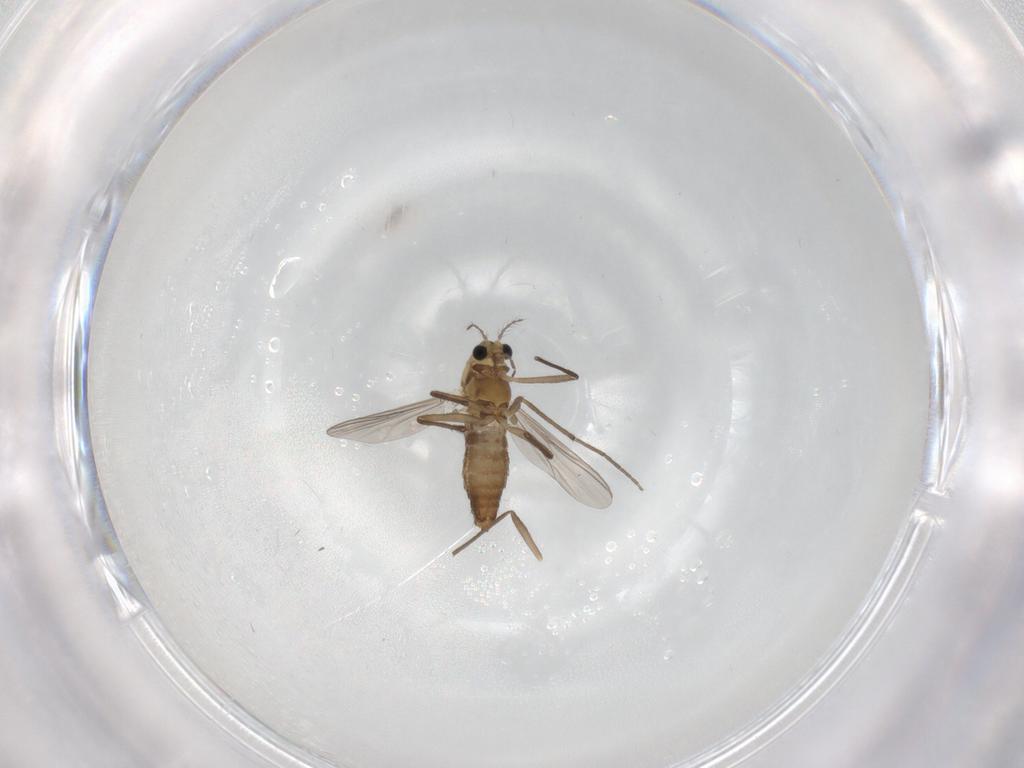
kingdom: Animalia
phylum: Arthropoda
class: Insecta
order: Diptera
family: Chironomidae
